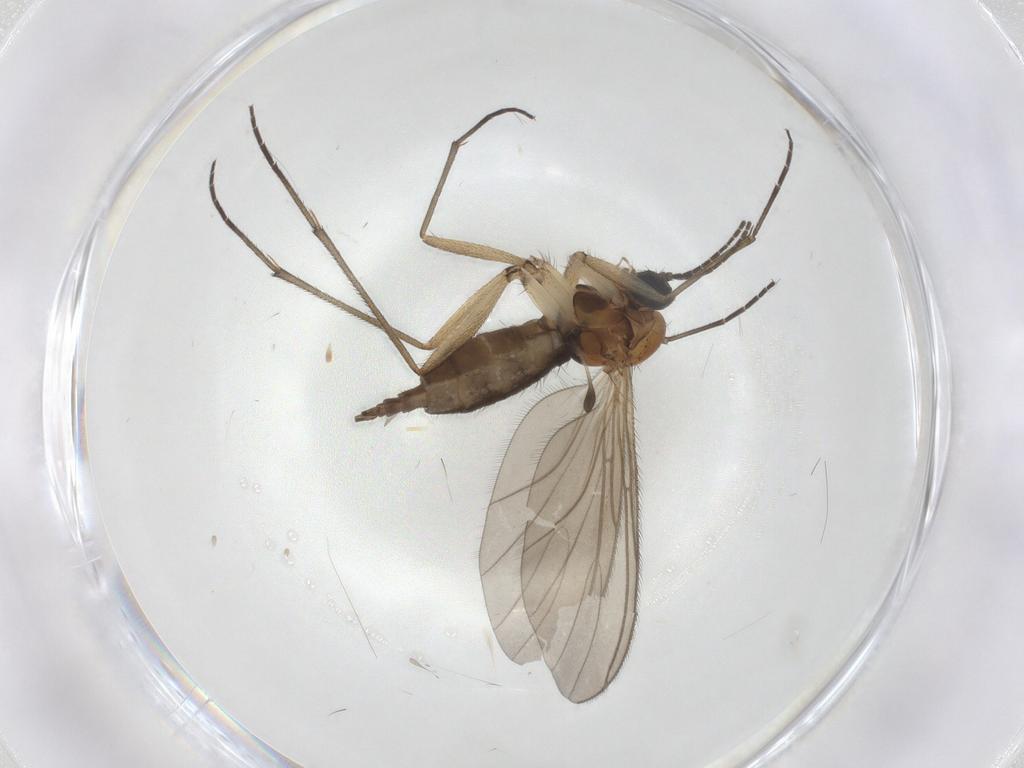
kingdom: Animalia
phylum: Arthropoda
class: Insecta
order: Diptera
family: Sciaridae
